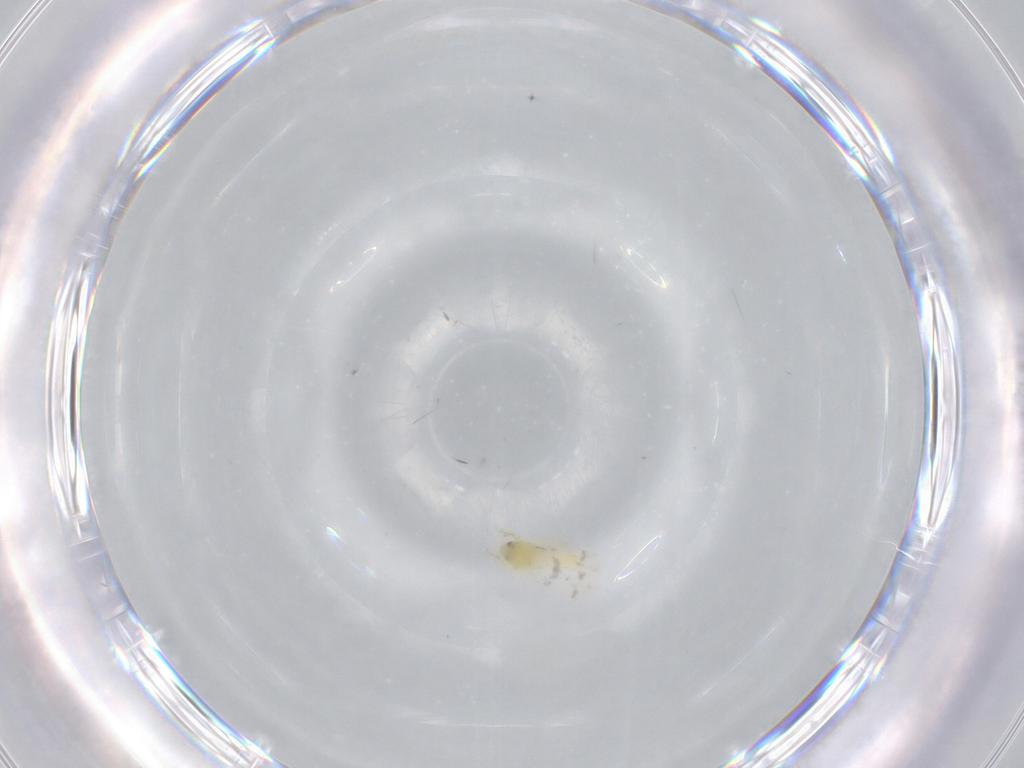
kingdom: Animalia
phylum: Arthropoda
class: Insecta
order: Hemiptera
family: Aleyrodidae
